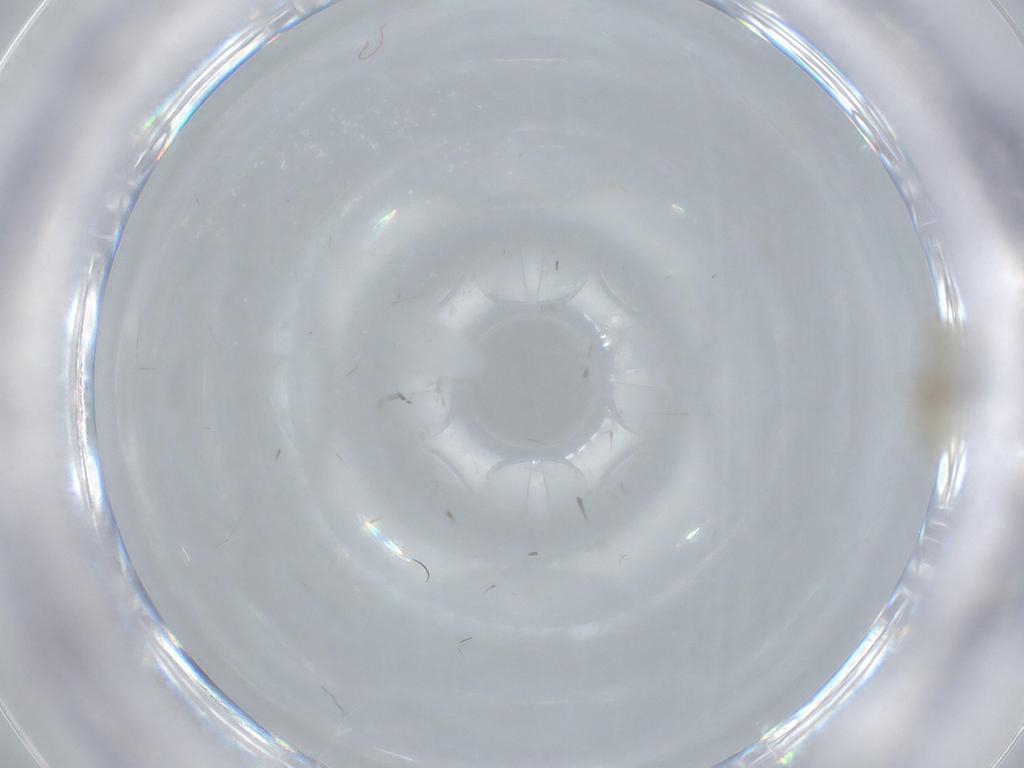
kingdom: Animalia
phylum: Arthropoda
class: Insecta
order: Hymenoptera
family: Aphelinidae
